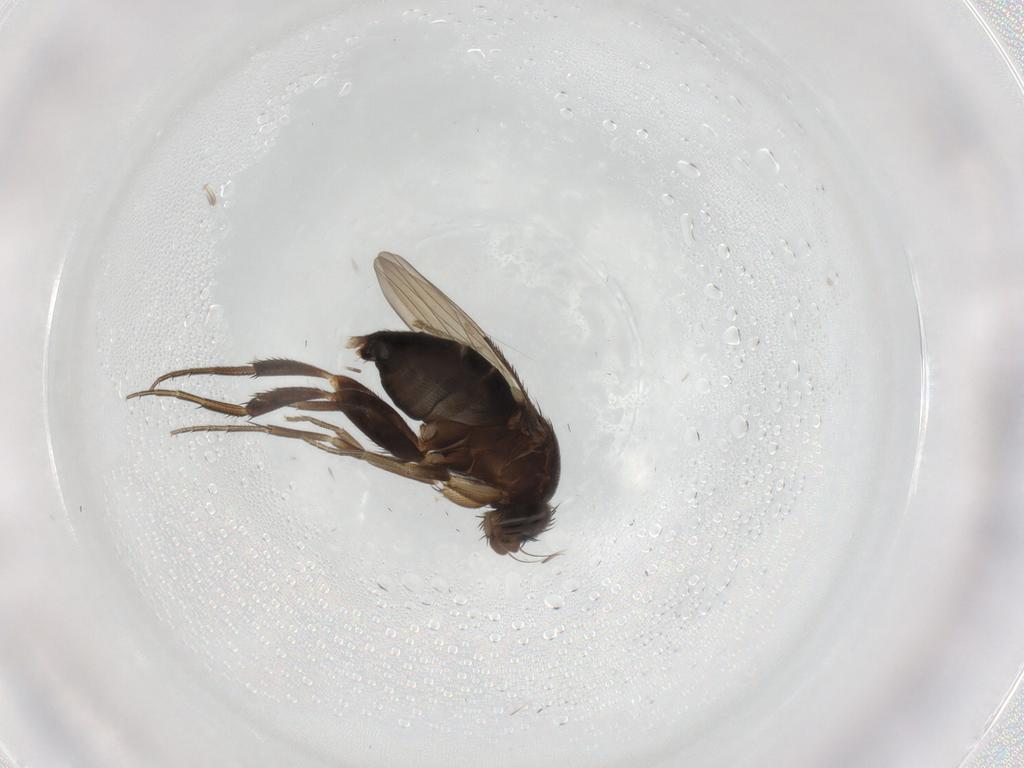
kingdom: Animalia
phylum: Arthropoda
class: Insecta
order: Diptera
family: Phoridae
